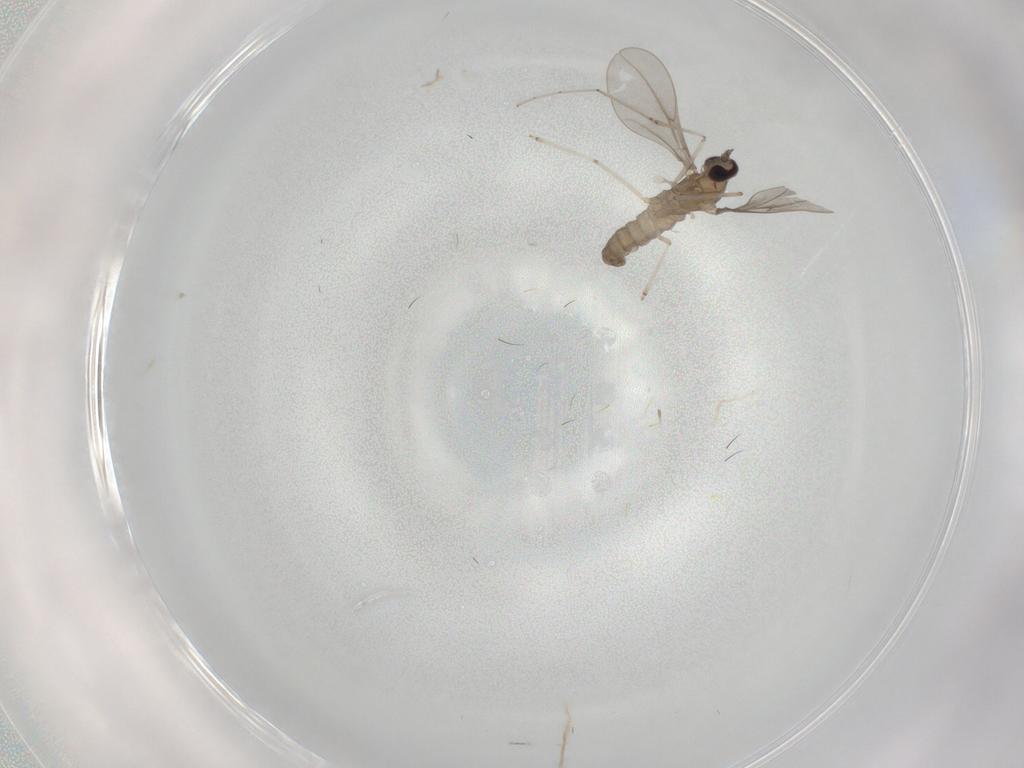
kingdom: Animalia
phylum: Arthropoda
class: Insecta
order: Diptera
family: Cecidomyiidae
